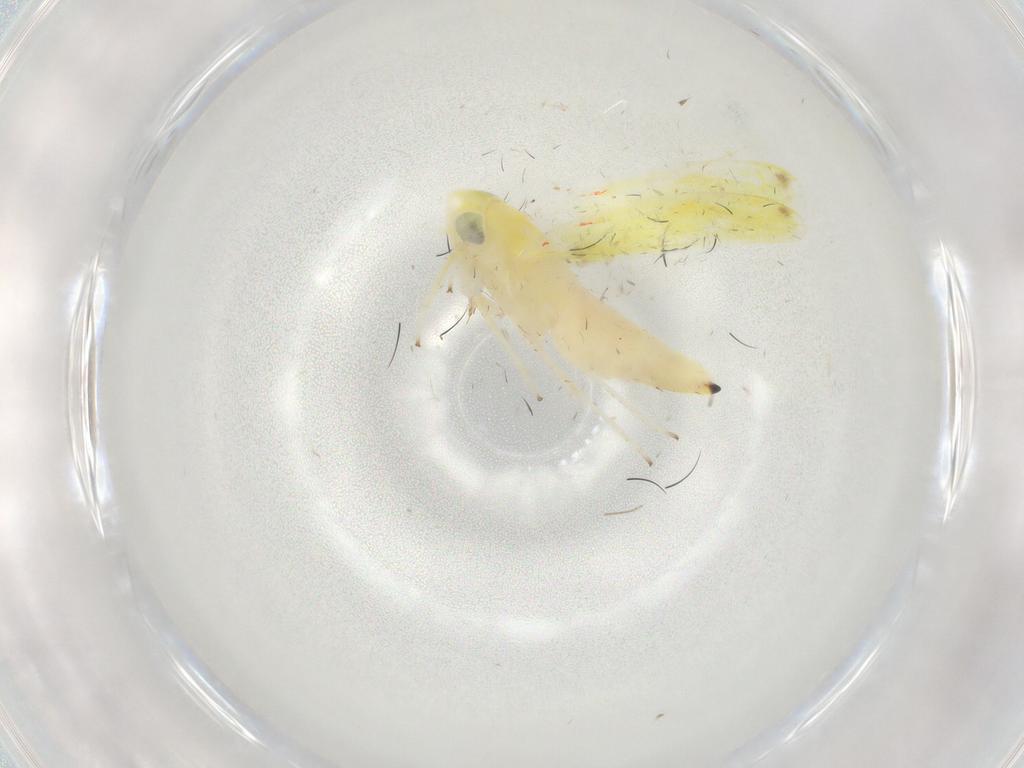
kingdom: Animalia
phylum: Arthropoda
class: Insecta
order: Hemiptera
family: Cicadellidae
